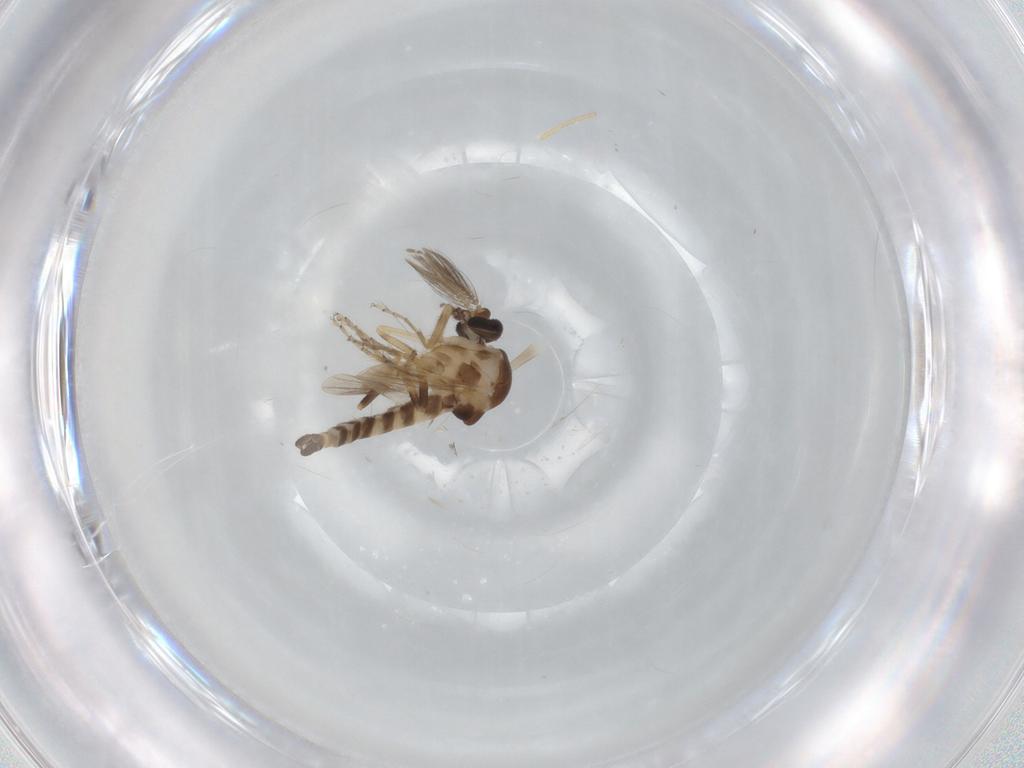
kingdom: Animalia
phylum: Arthropoda
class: Insecta
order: Diptera
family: Ceratopogonidae
